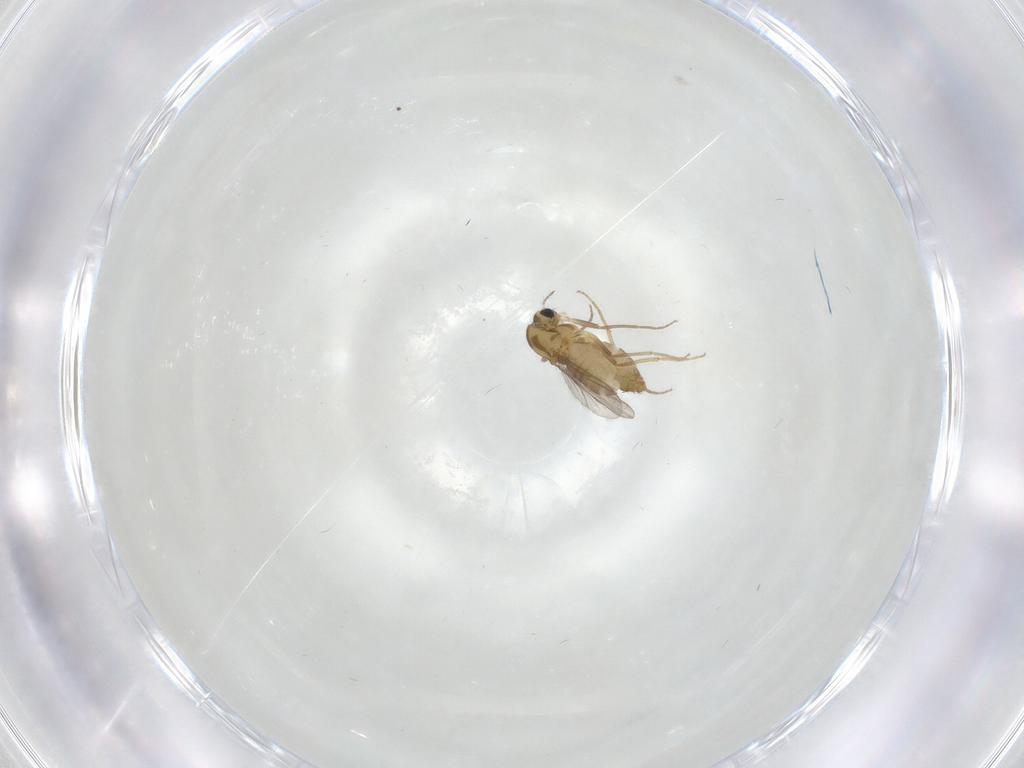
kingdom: Animalia
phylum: Arthropoda
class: Insecta
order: Diptera
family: Chironomidae
